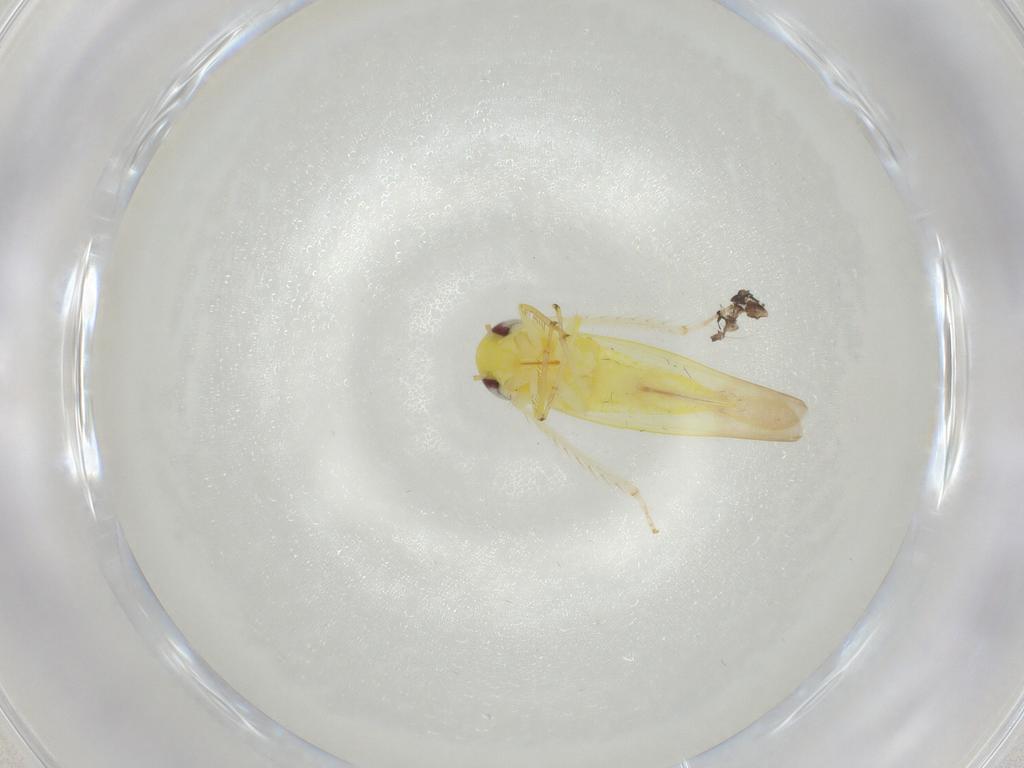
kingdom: Animalia
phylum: Arthropoda
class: Insecta
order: Hemiptera
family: Cicadellidae
